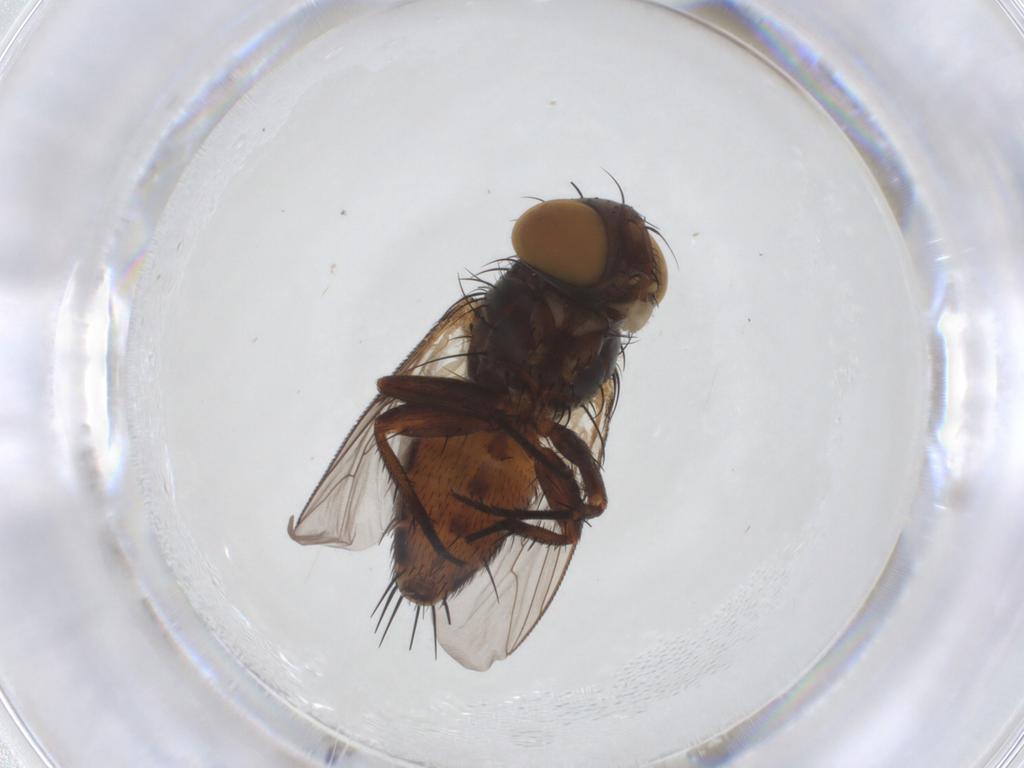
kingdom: Animalia
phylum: Arthropoda
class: Insecta
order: Diptera
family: Sarcophagidae
